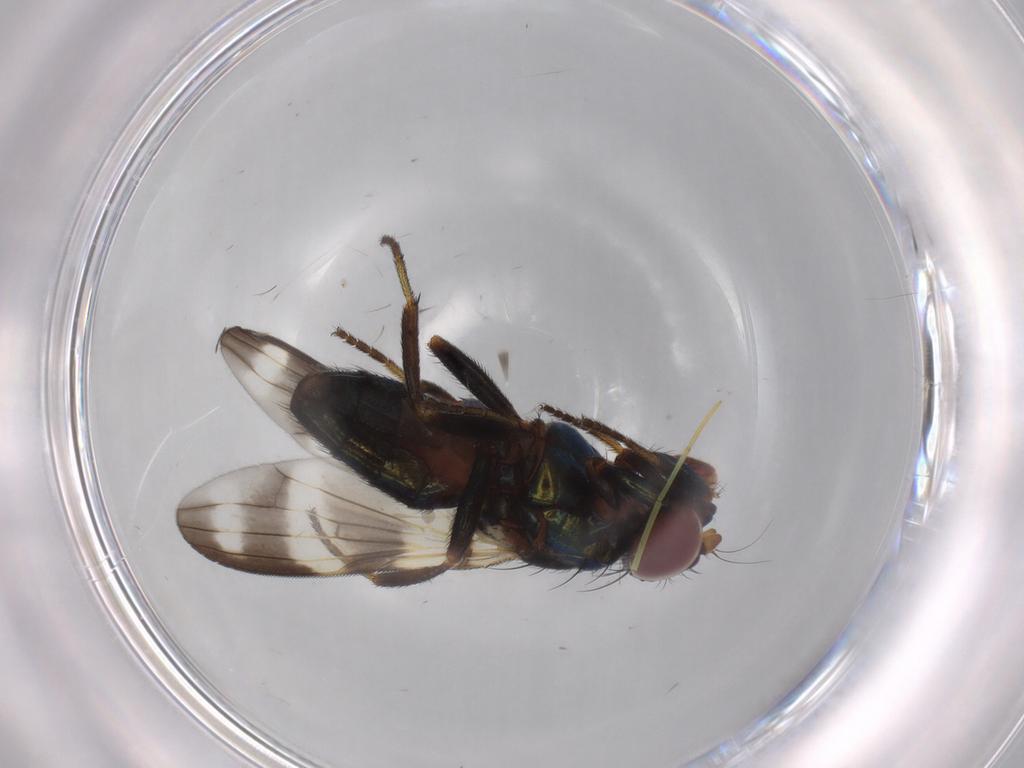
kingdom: Animalia
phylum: Arthropoda
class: Insecta
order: Diptera
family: Ulidiidae
